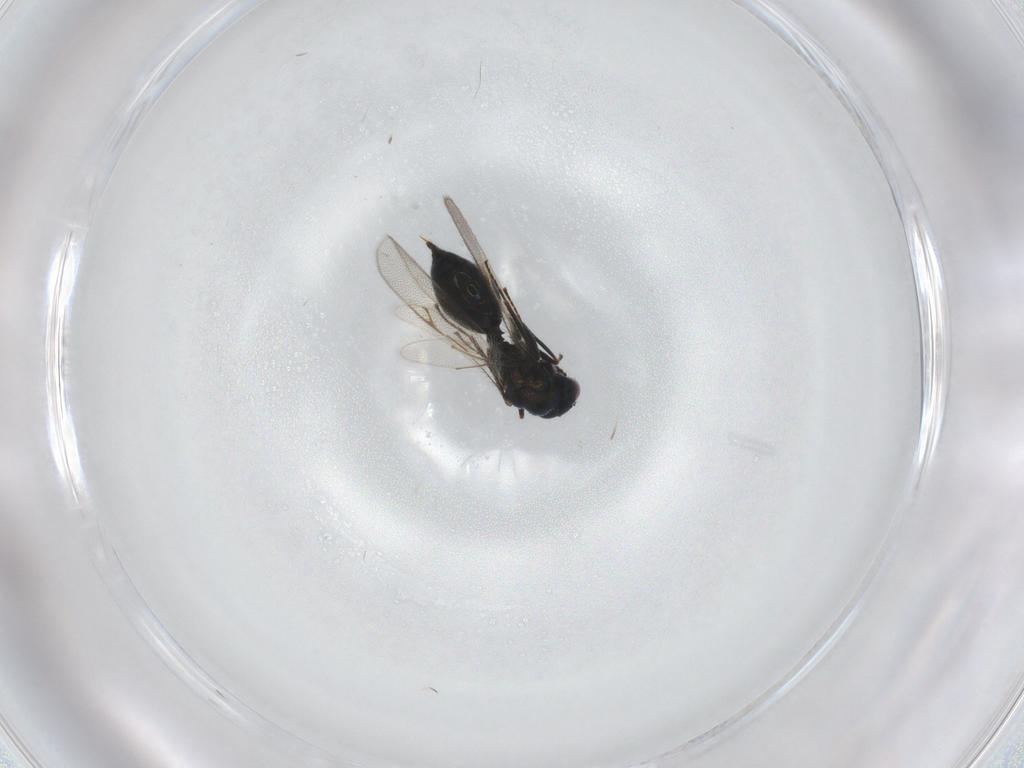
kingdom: Animalia
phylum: Arthropoda
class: Insecta
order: Hymenoptera
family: Chalcidoidea_incertae_sedis
